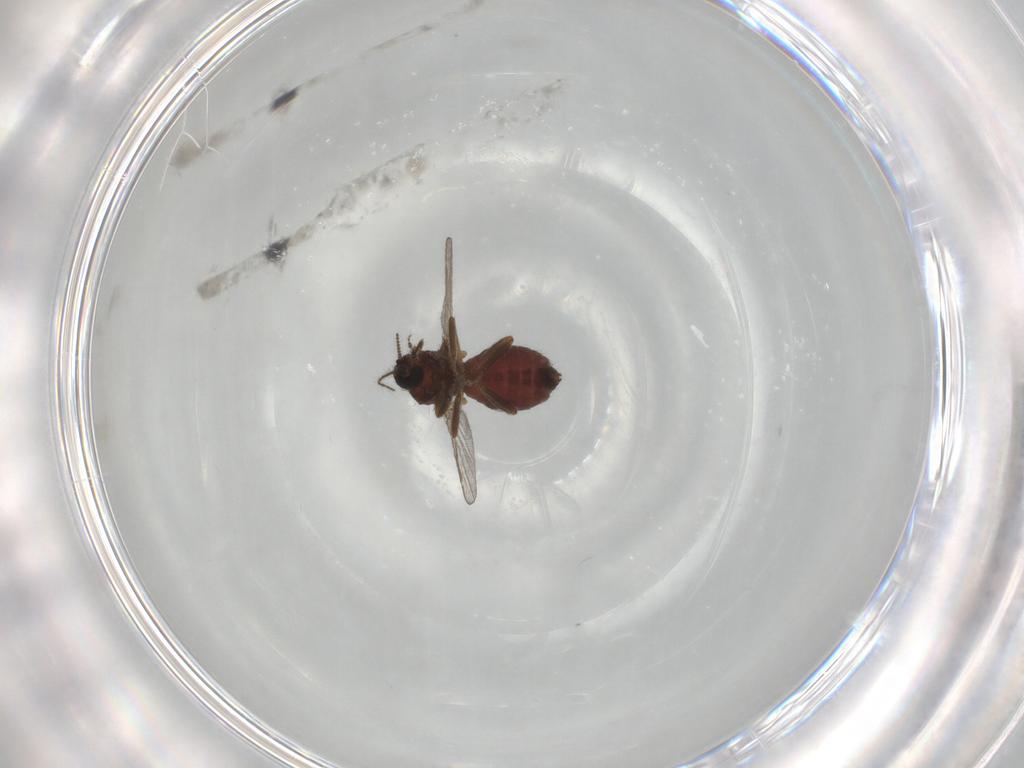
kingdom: Animalia
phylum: Arthropoda
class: Insecta
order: Diptera
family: Ceratopogonidae
